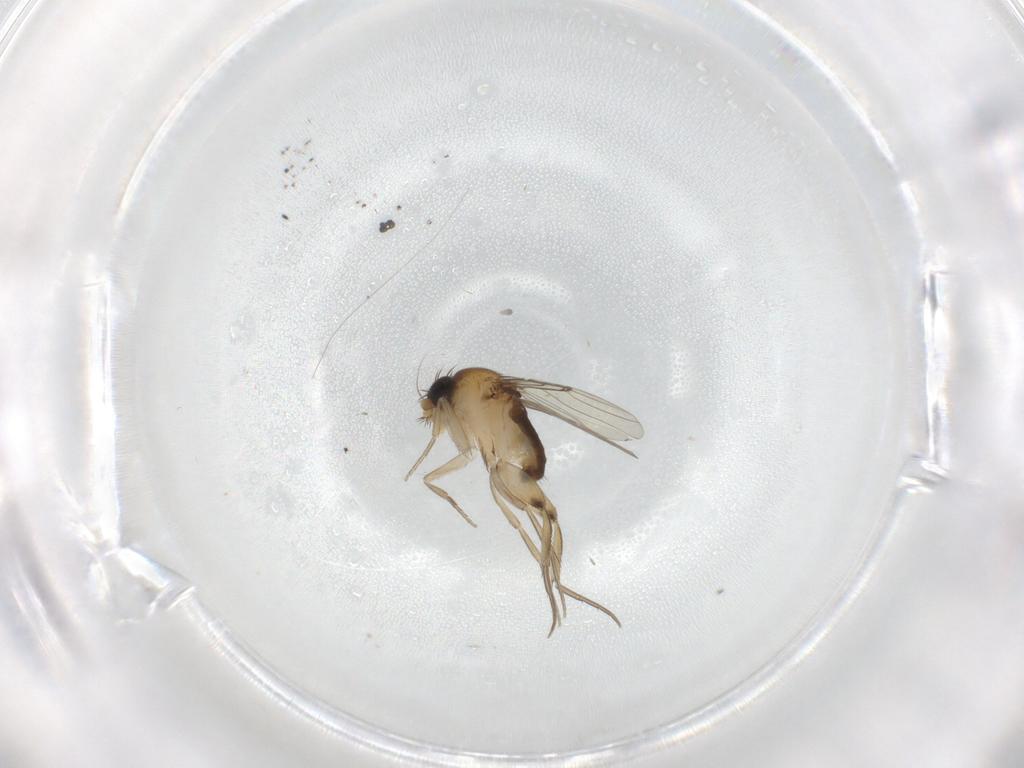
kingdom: Animalia
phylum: Arthropoda
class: Insecta
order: Diptera
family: Phoridae
